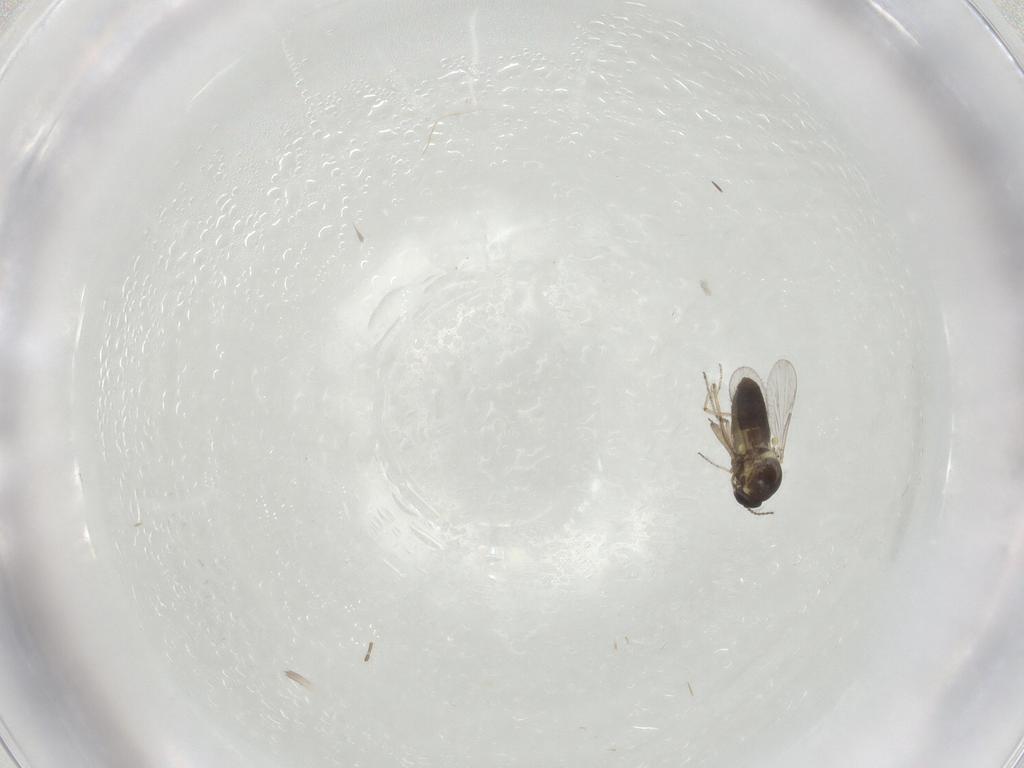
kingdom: Animalia
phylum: Arthropoda
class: Insecta
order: Diptera
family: Ceratopogonidae
